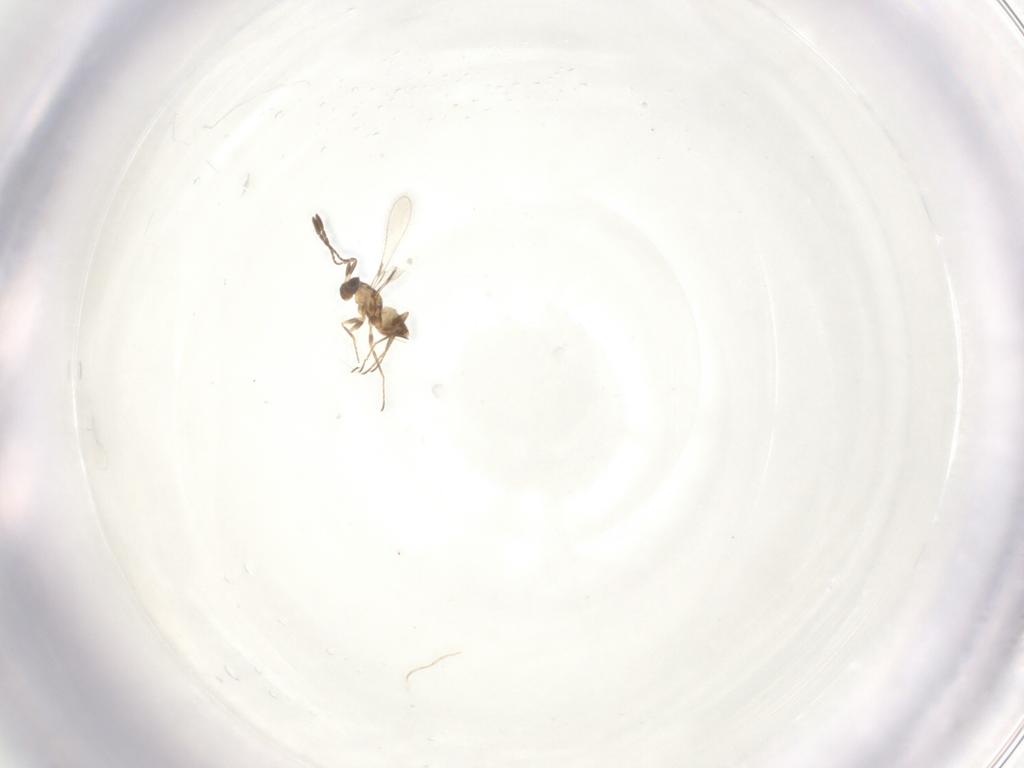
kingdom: Animalia
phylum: Arthropoda
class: Insecta
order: Hymenoptera
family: Mymaridae
